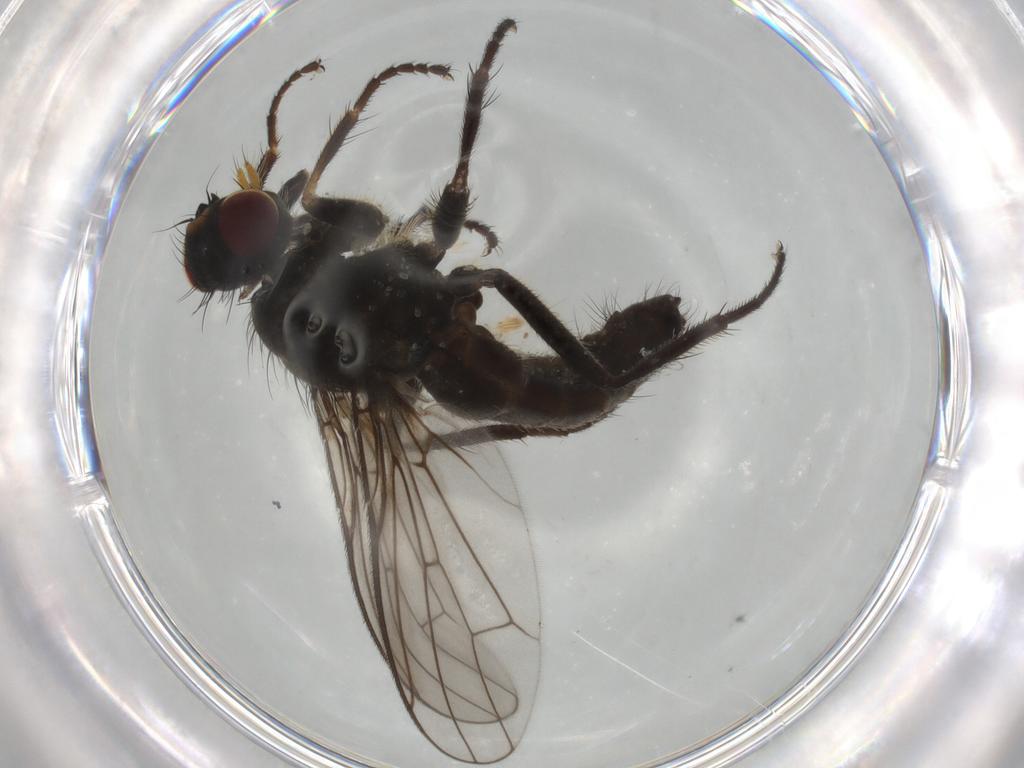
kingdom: Animalia
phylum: Arthropoda
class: Insecta
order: Diptera
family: Scathophagidae
